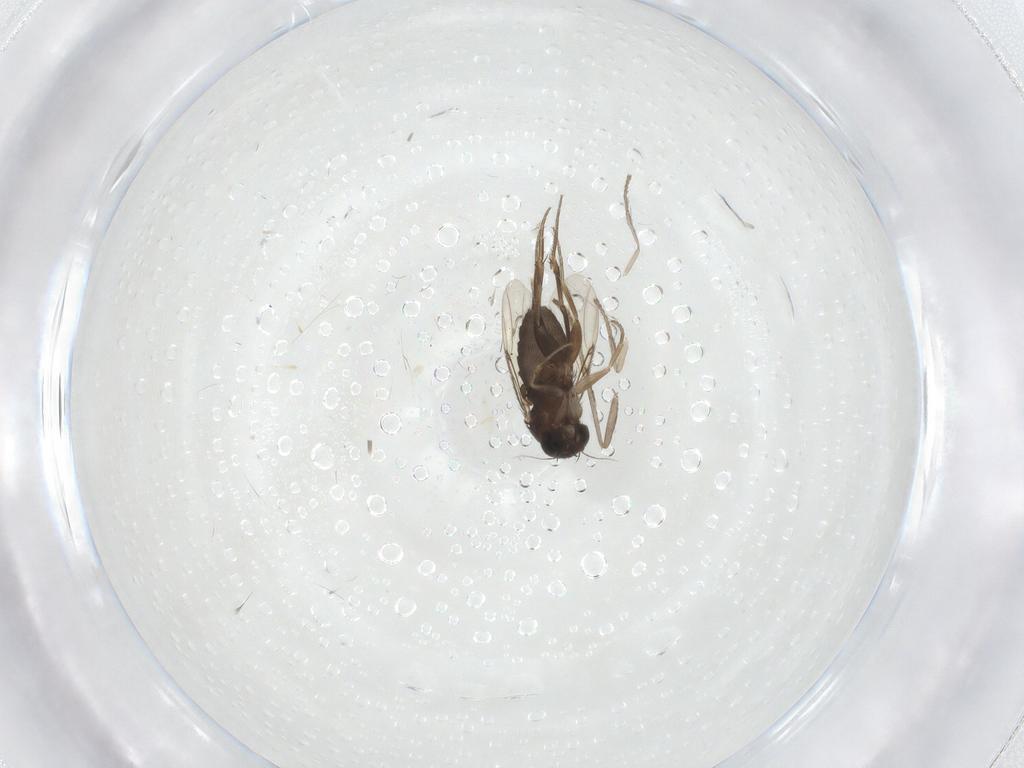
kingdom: Animalia
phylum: Arthropoda
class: Insecta
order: Diptera
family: Phoridae
